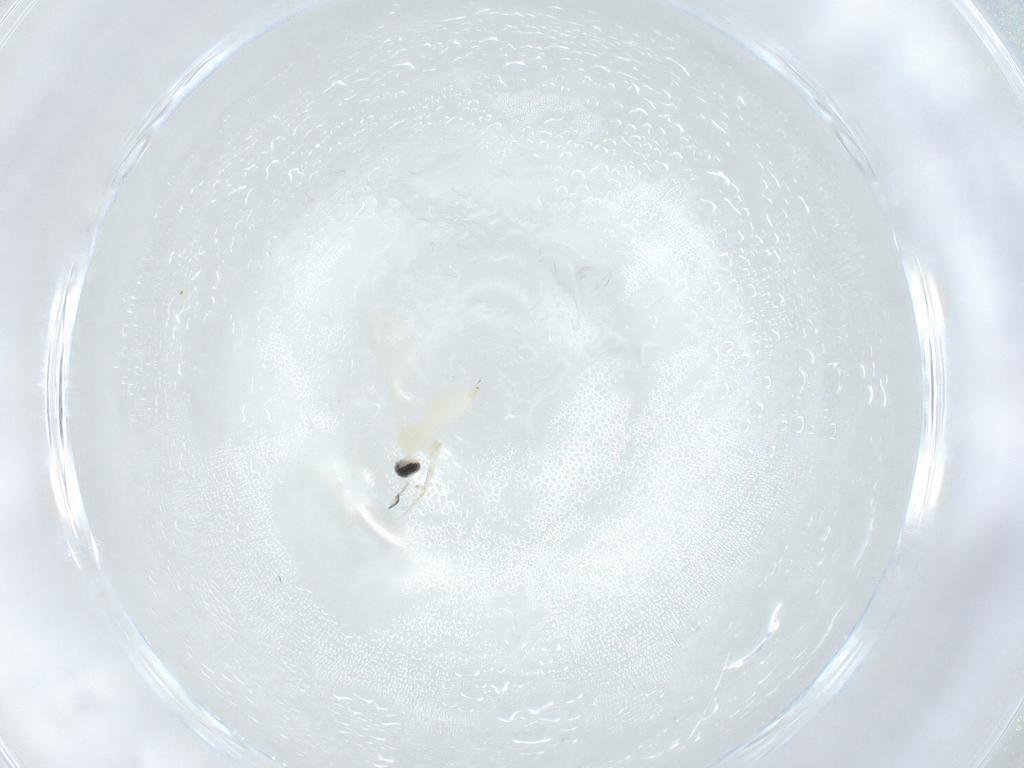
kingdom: Animalia
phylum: Arthropoda
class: Insecta
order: Diptera
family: Cecidomyiidae
